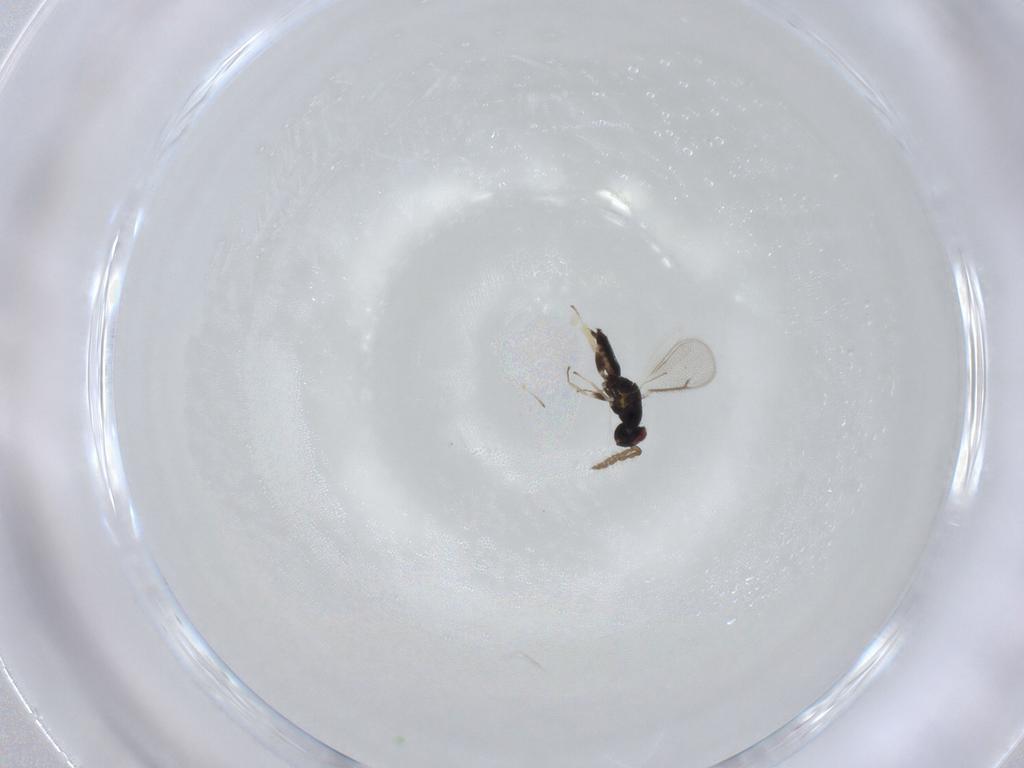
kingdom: Animalia
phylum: Arthropoda
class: Insecta
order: Hymenoptera
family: Eulophidae
